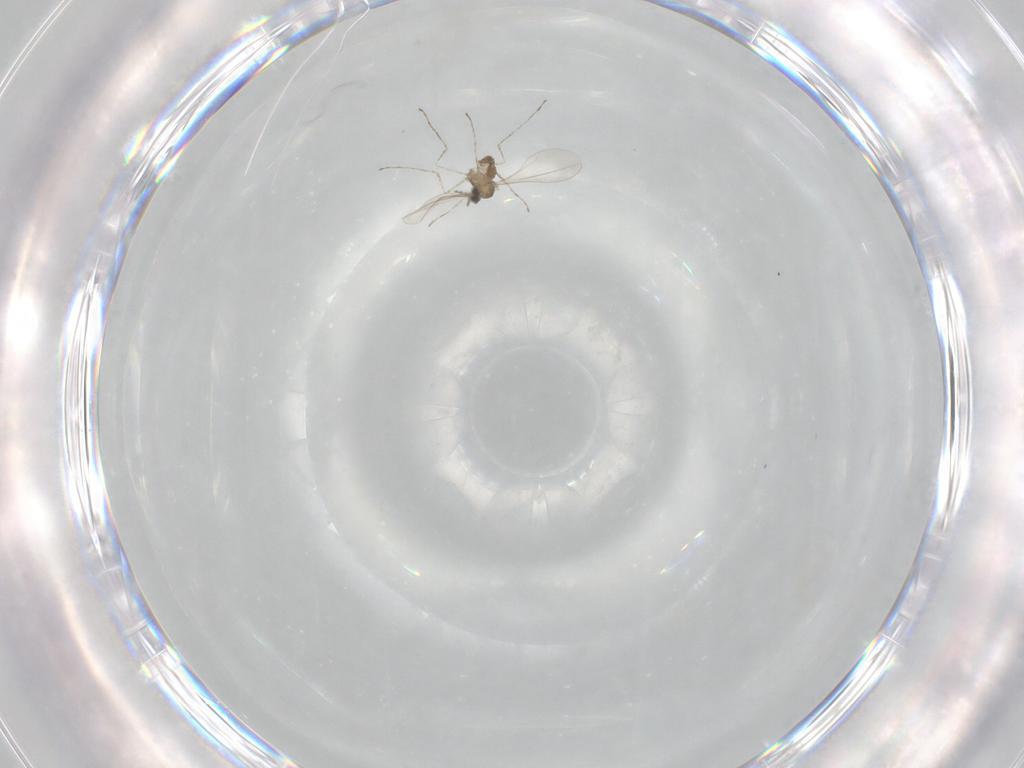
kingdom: Animalia
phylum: Arthropoda
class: Insecta
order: Diptera
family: Cecidomyiidae
